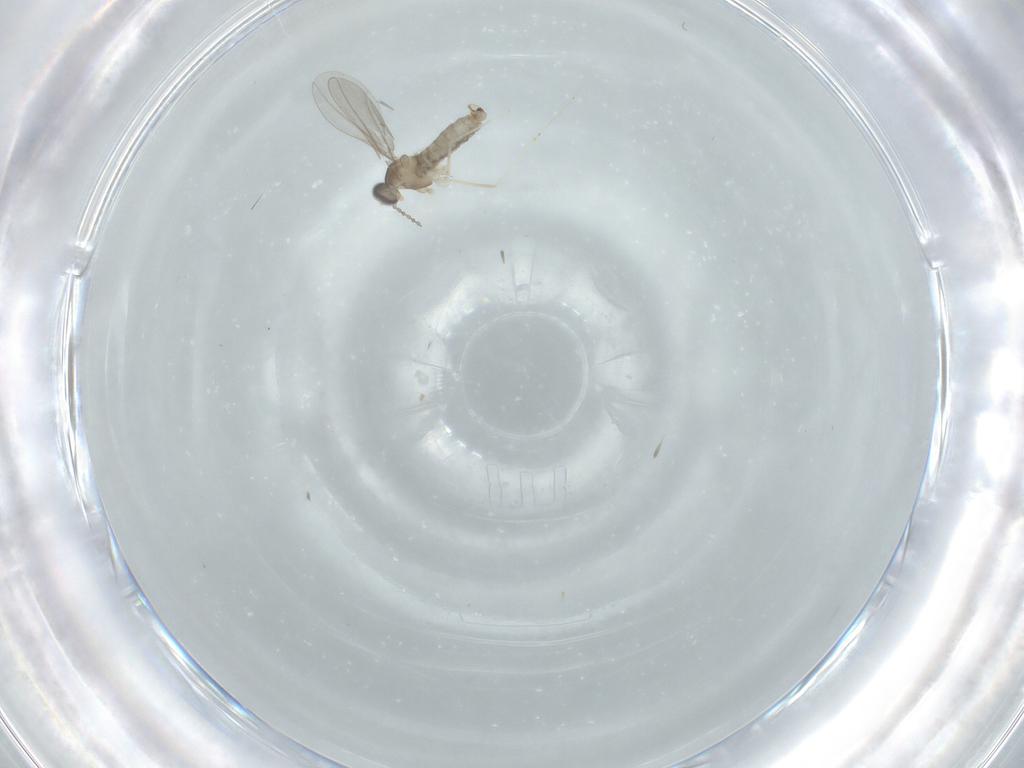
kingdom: Animalia
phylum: Arthropoda
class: Insecta
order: Diptera
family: Cecidomyiidae
